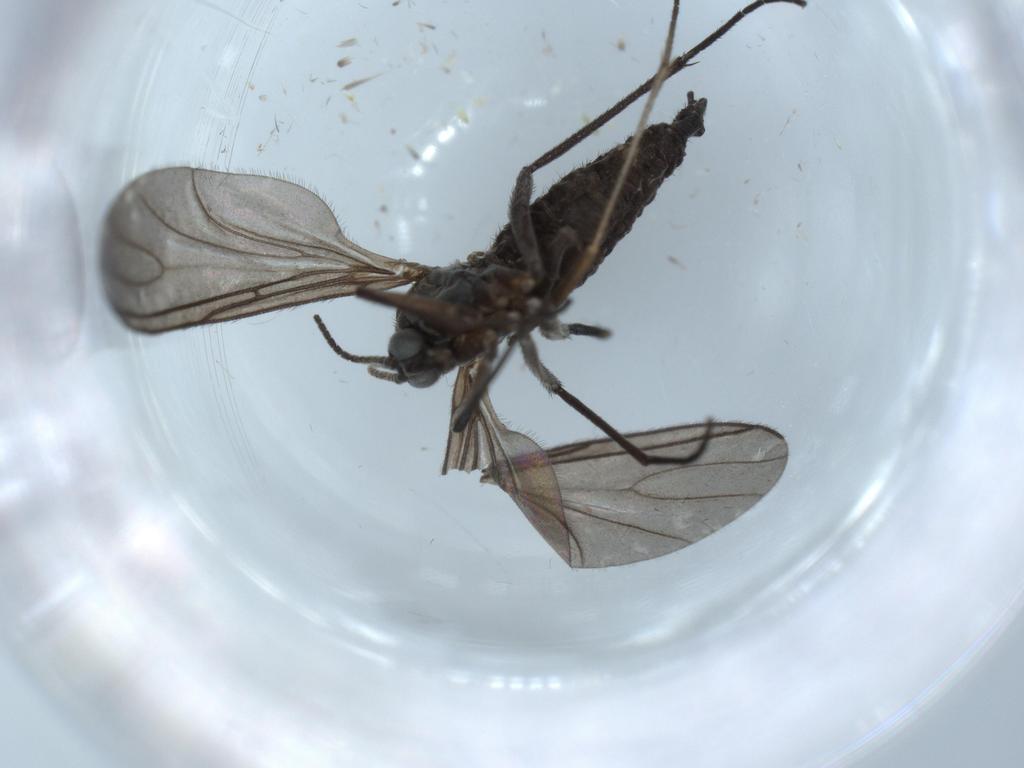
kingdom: Animalia
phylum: Arthropoda
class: Insecta
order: Diptera
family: Sciaridae
